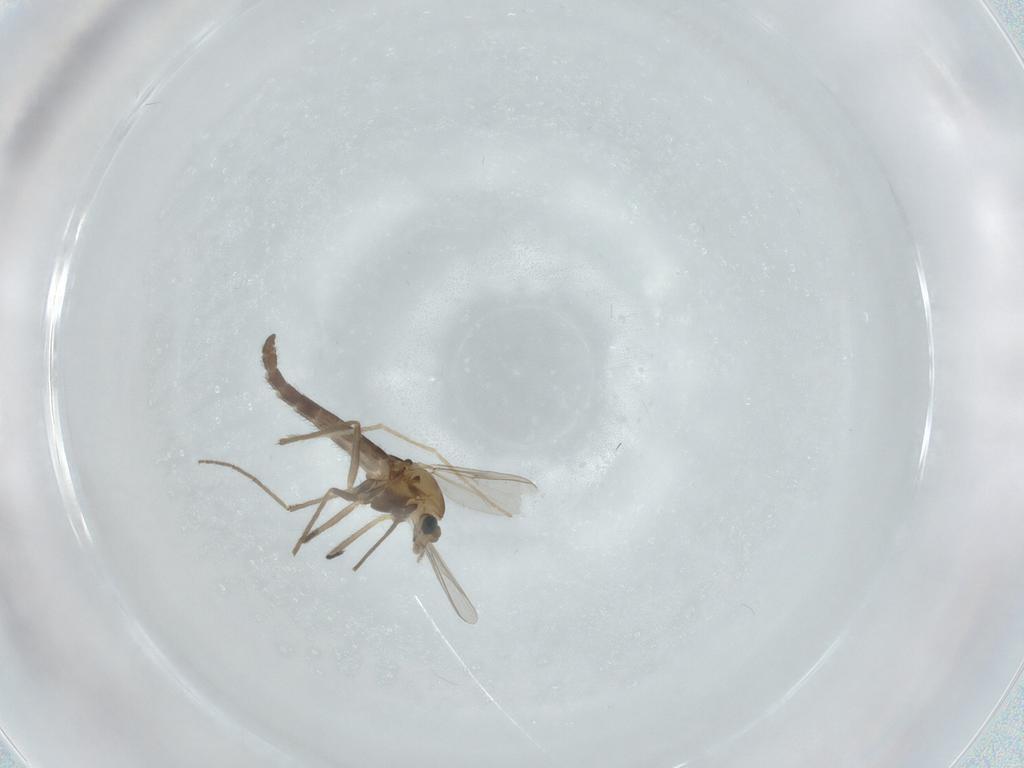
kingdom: Animalia
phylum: Arthropoda
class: Insecta
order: Diptera
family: Chironomidae
